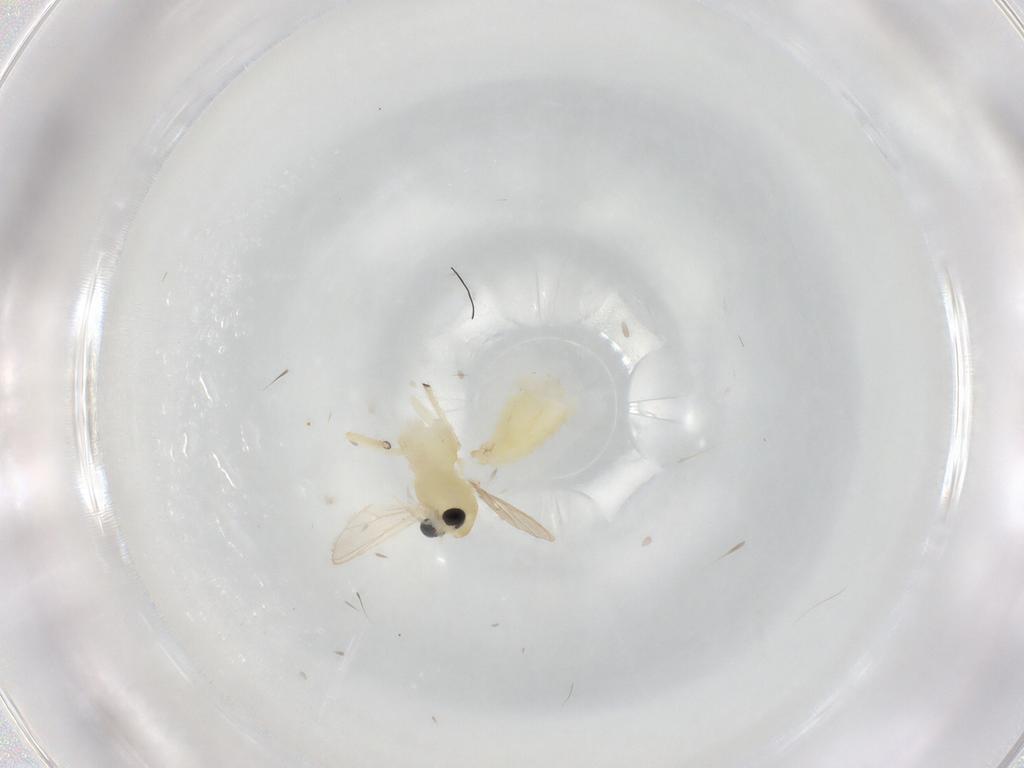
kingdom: Animalia
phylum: Arthropoda
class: Insecta
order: Diptera
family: Chironomidae
